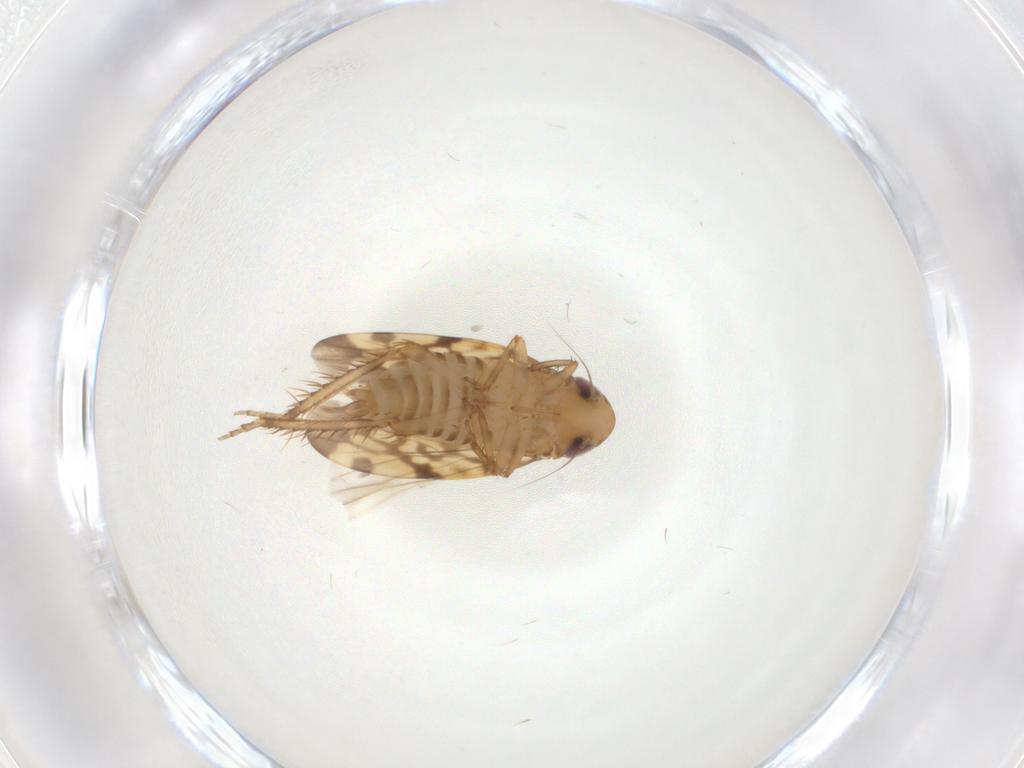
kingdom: Animalia
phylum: Arthropoda
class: Insecta
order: Hemiptera
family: Cicadellidae
